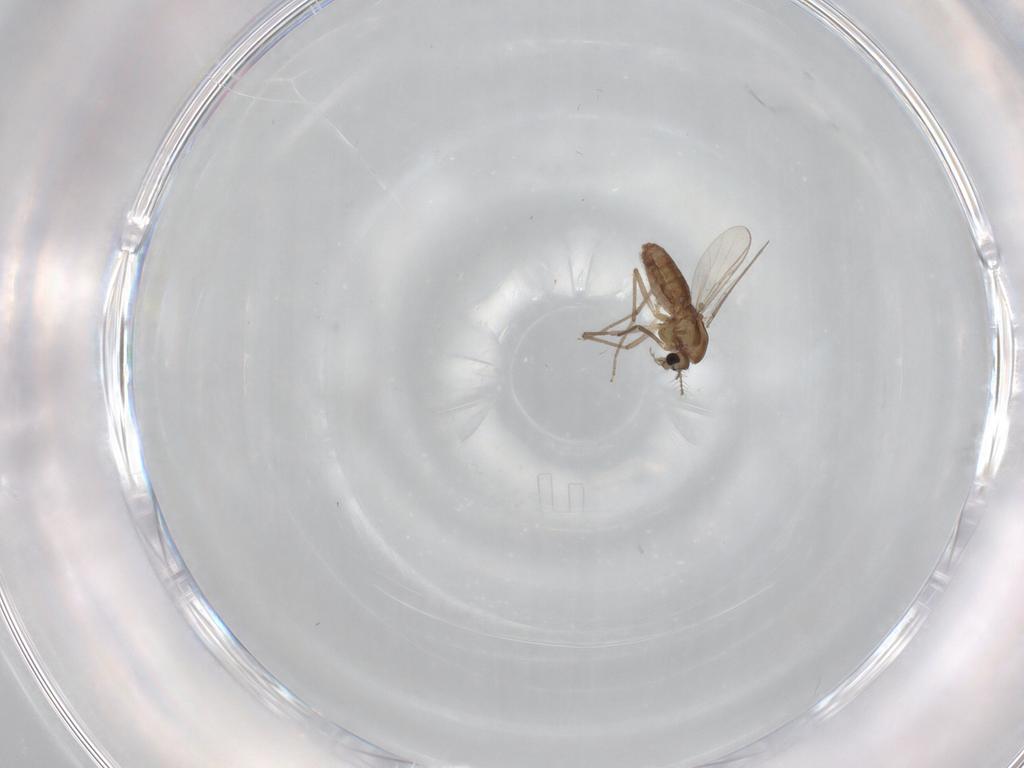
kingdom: Animalia
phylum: Arthropoda
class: Insecta
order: Diptera
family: Chironomidae
